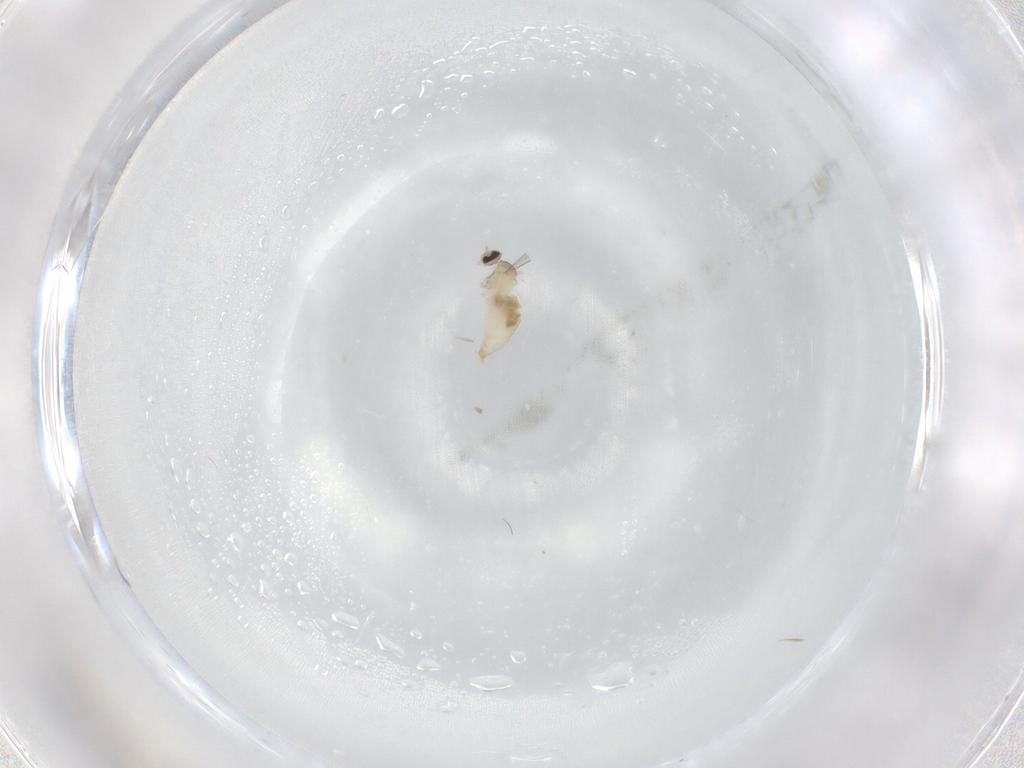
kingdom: Animalia
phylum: Arthropoda
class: Insecta
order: Diptera
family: Cecidomyiidae
